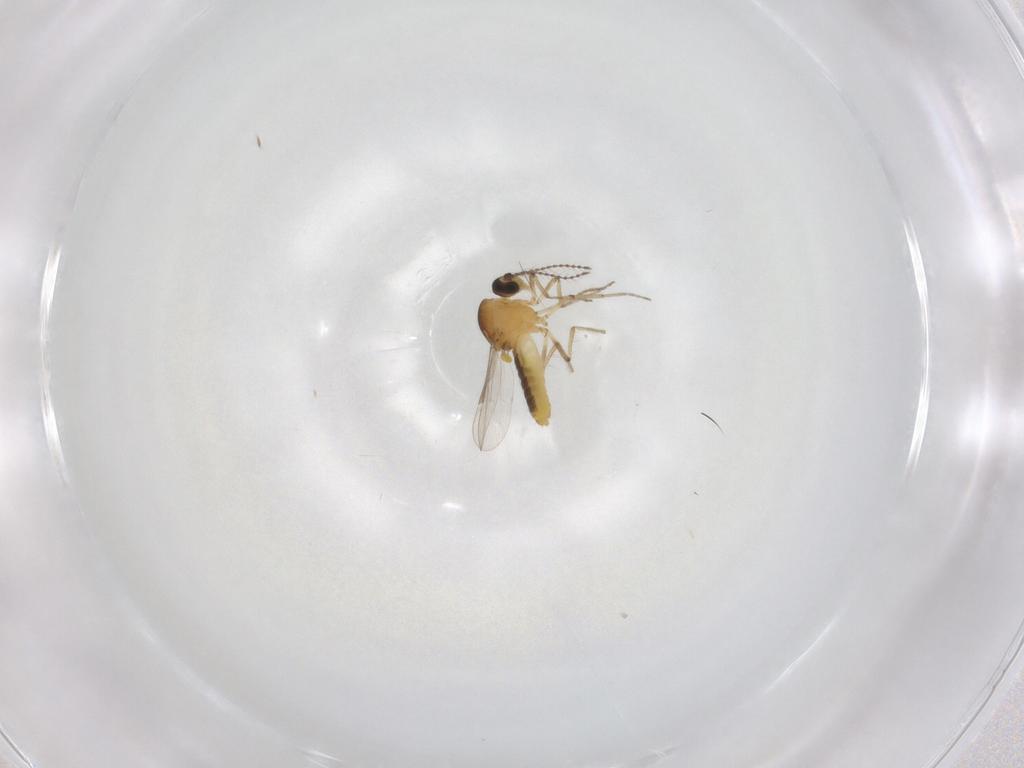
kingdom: Animalia
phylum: Arthropoda
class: Insecta
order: Diptera
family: Ceratopogonidae
